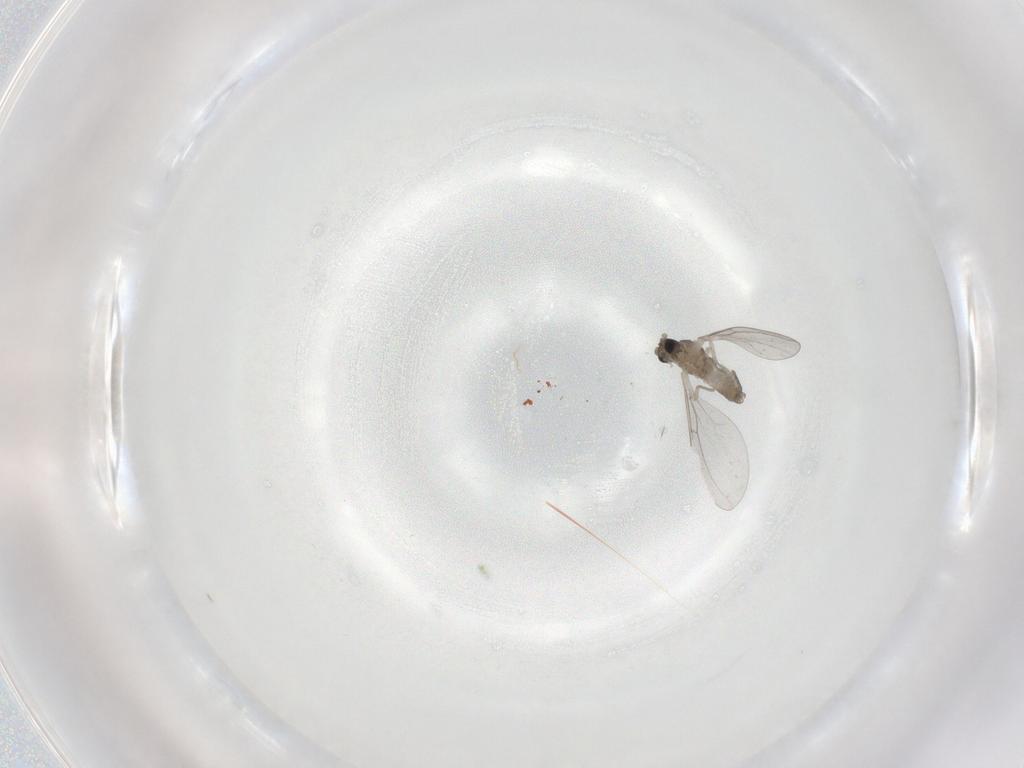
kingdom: Animalia
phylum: Arthropoda
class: Insecta
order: Diptera
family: Cecidomyiidae
